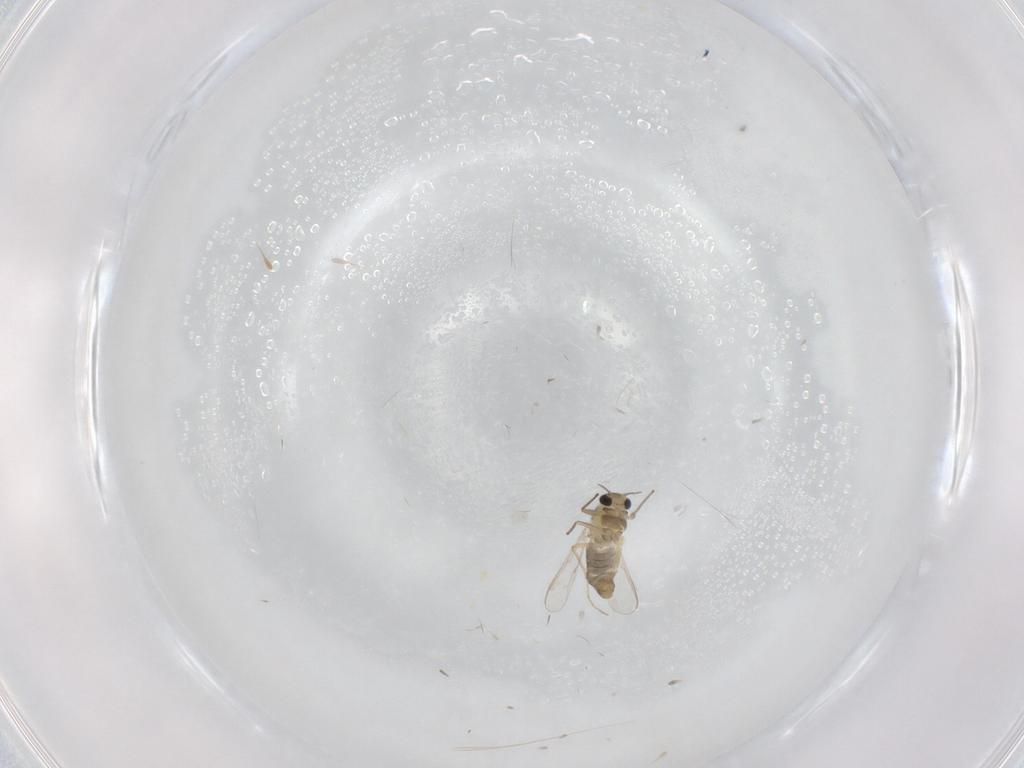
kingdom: Animalia
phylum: Arthropoda
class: Insecta
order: Diptera
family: Chironomidae
